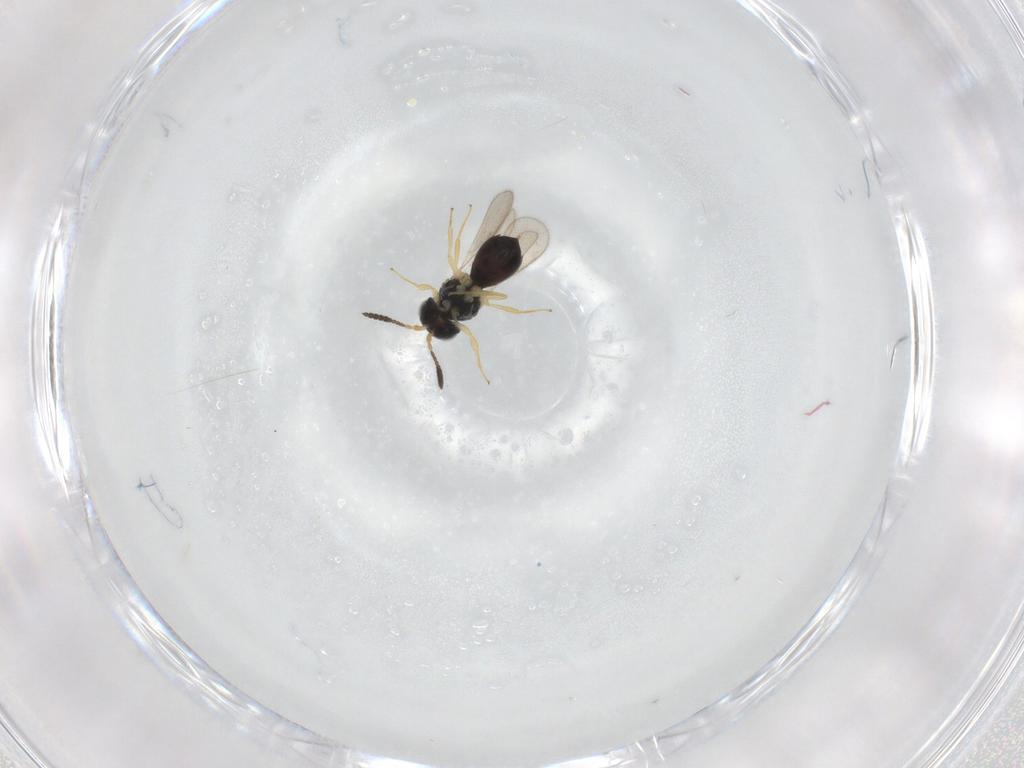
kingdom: Animalia
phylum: Arthropoda
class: Insecta
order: Hymenoptera
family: Scelionidae
